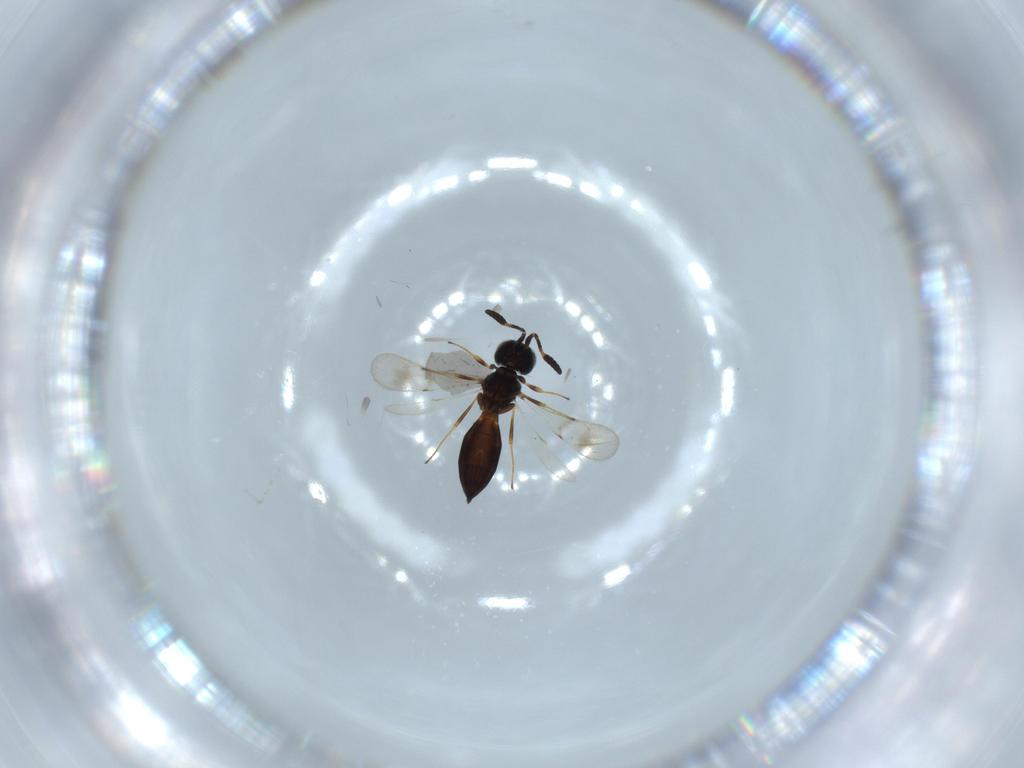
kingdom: Animalia
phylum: Arthropoda
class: Insecta
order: Hymenoptera
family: Scelionidae
